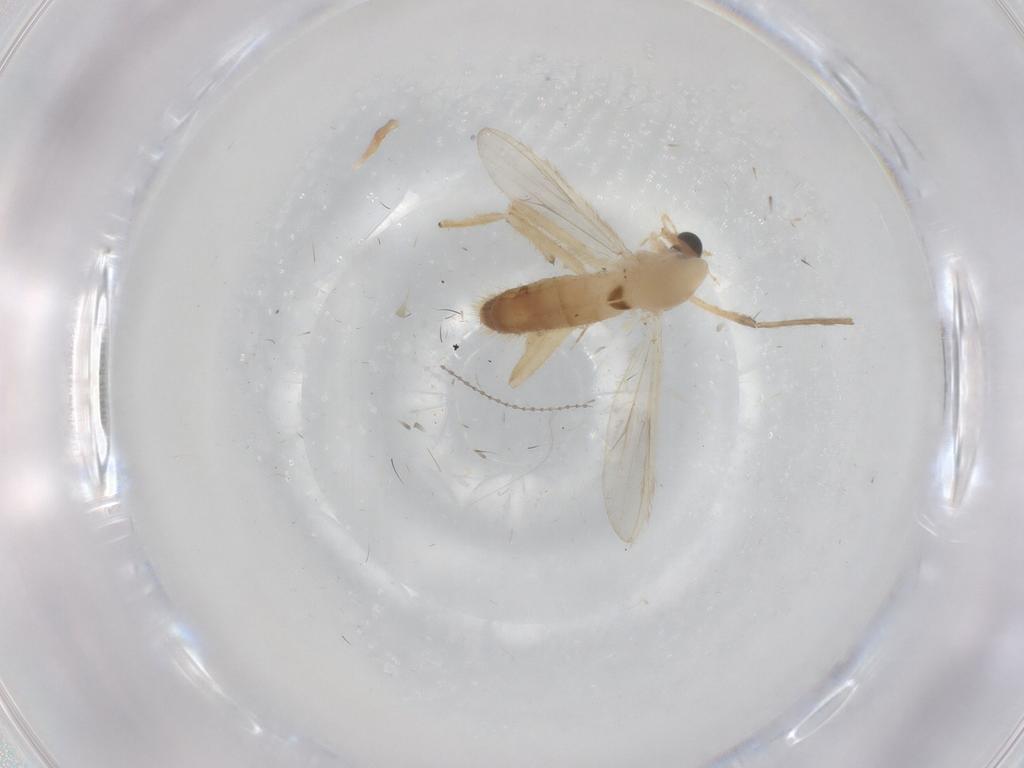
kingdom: Animalia
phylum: Arthropoda
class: Insecta
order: Diptera
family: Chironomidae
